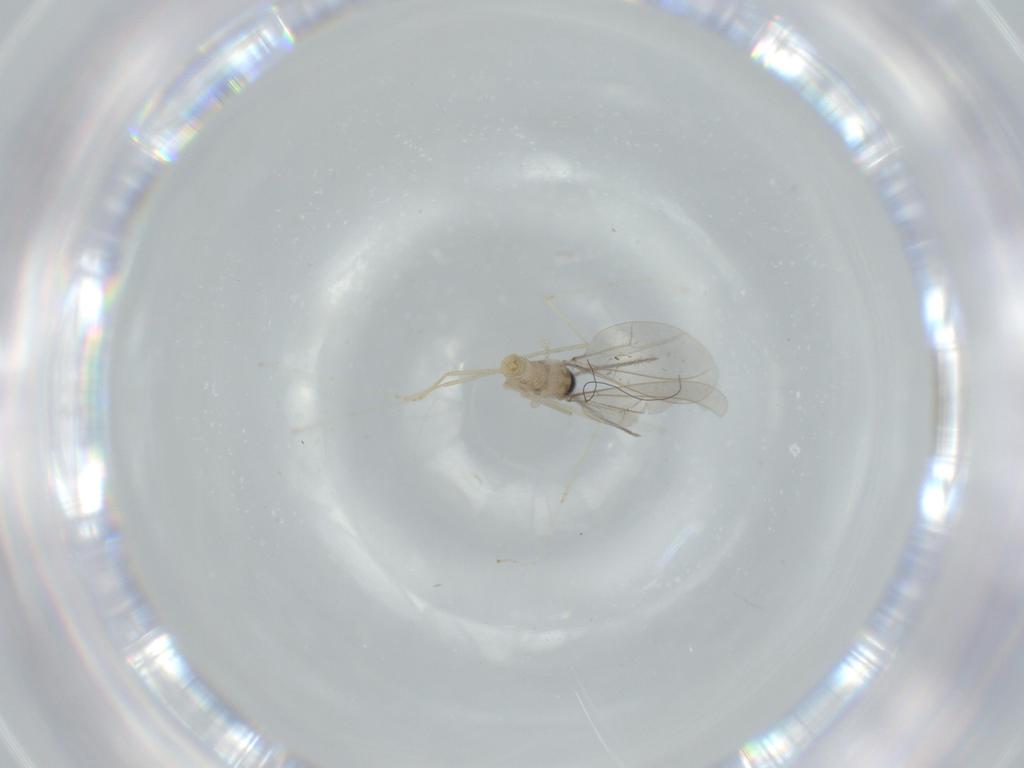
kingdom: Animalia
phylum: Arthropoda
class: Insecta
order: Diptera
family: Cecidomyiidae
